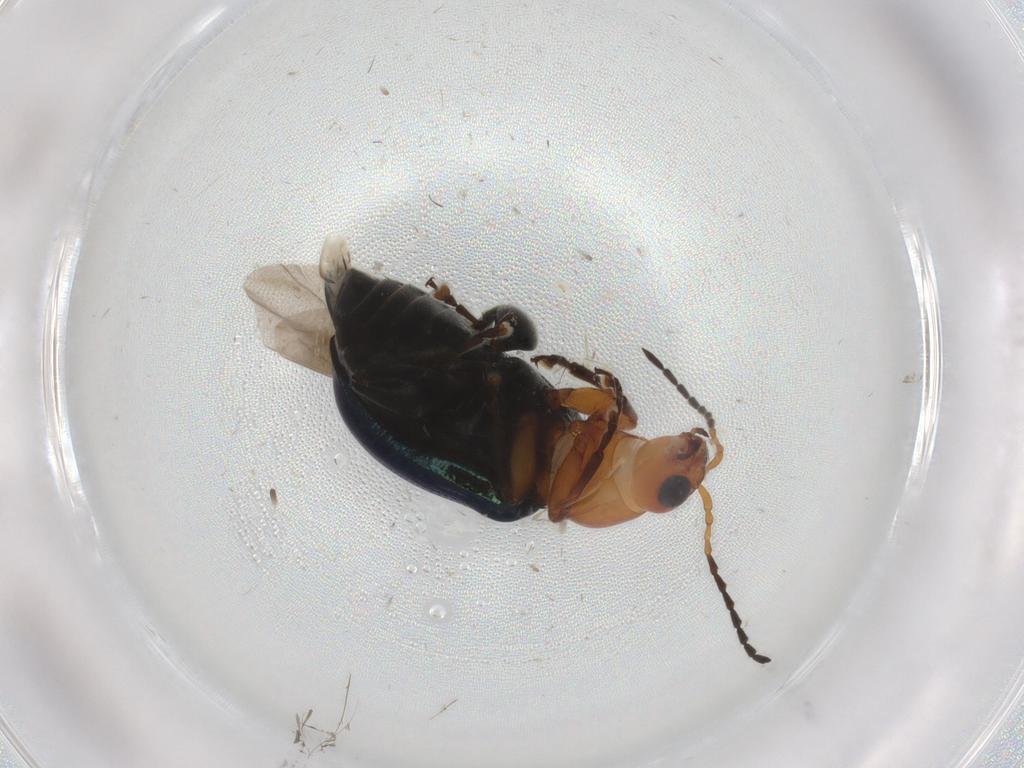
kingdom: Animalia
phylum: Arthropoda
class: Insecta
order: Coleoptera
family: Chrysomelidae
